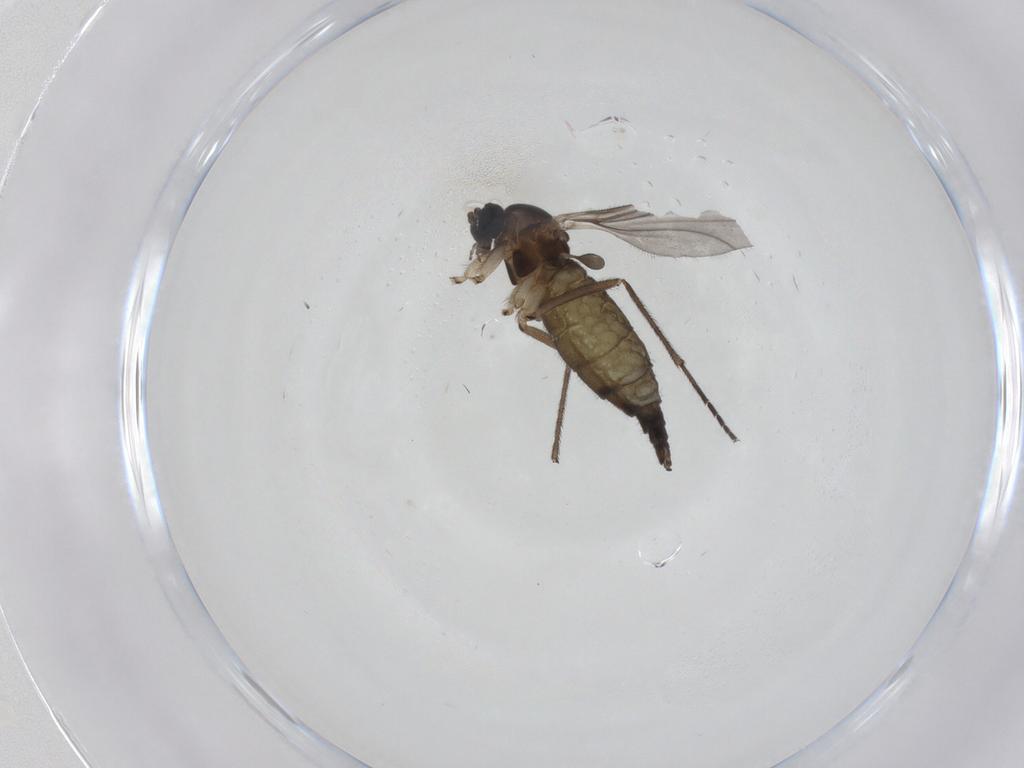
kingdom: Animalia
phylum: Arthropoda
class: Insecta
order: Diptera
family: Sciaridae
